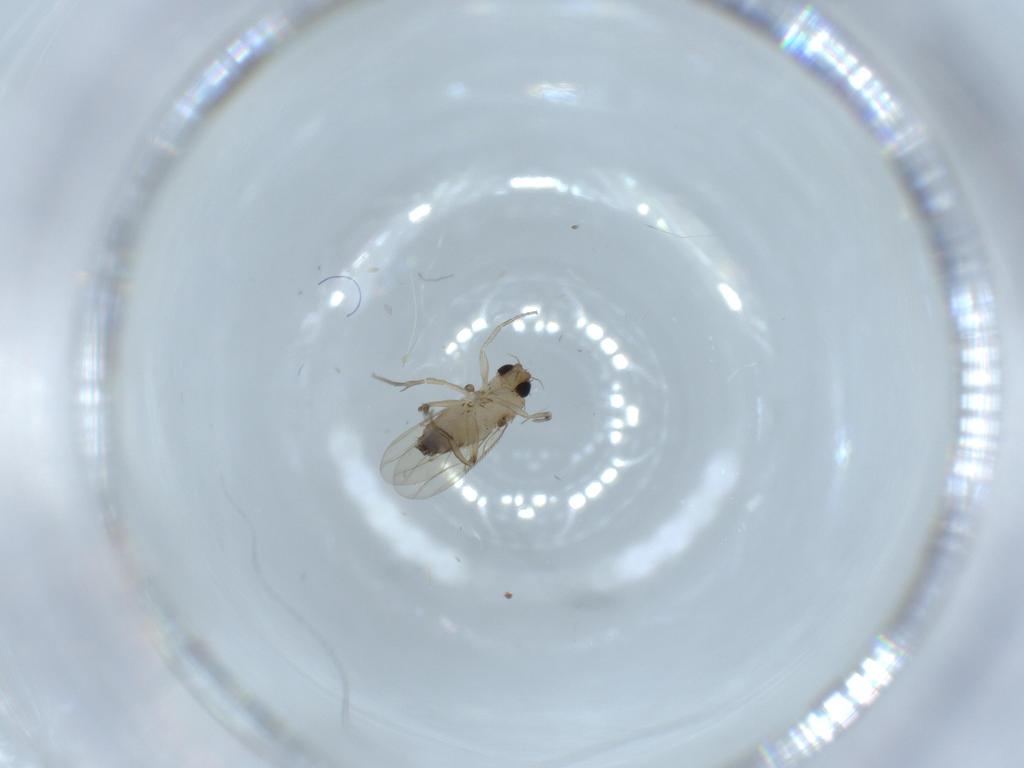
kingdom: Animalia
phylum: Arthropoda
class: Insecta
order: Diptera
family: Phoridae
